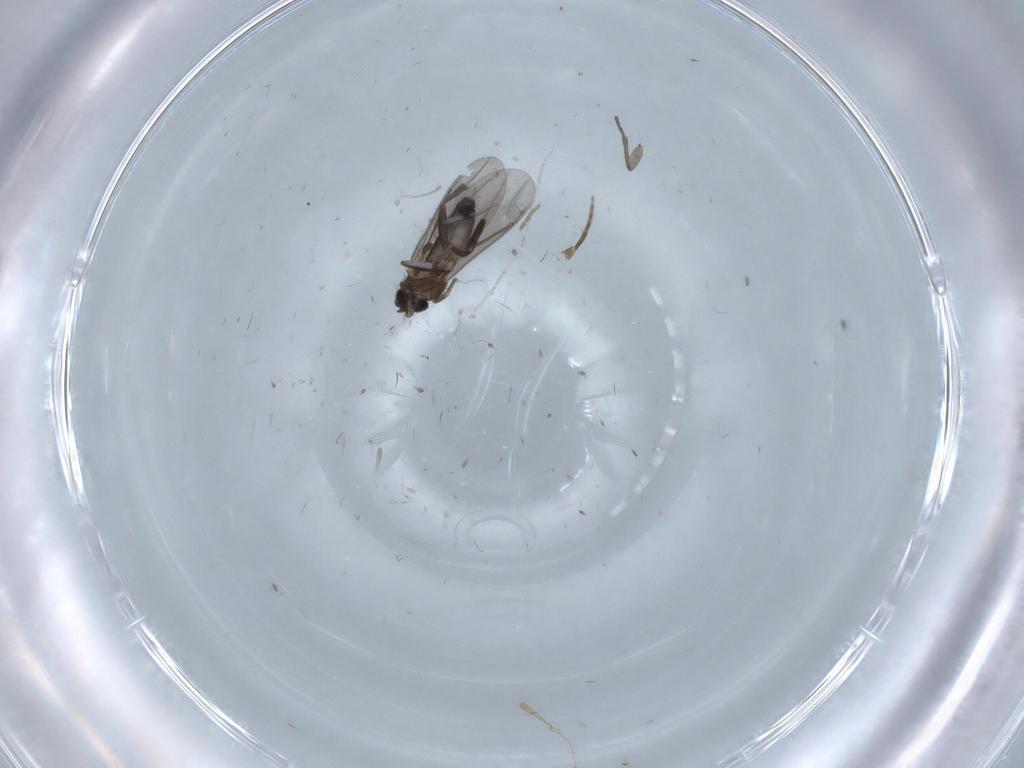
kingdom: Animalia
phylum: Arthropoda
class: Insecta
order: Diptera
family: Phoridae
